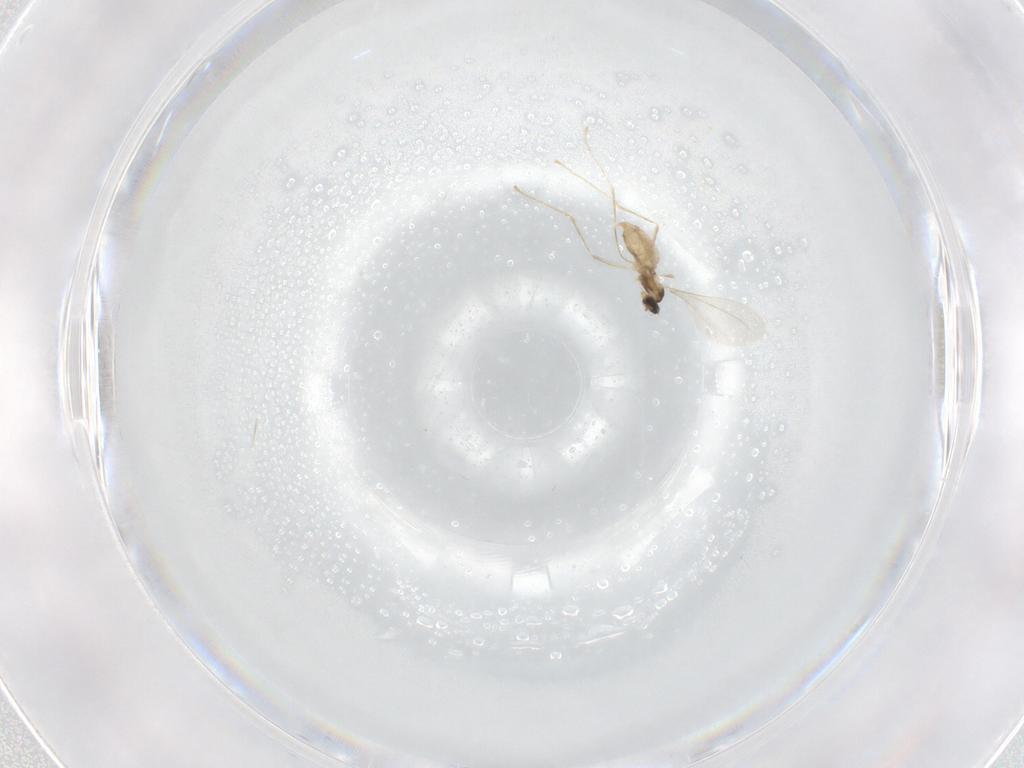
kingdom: Animalia
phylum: Arthropoda
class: Insecta
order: Diptera
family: Cecidomyiidae
